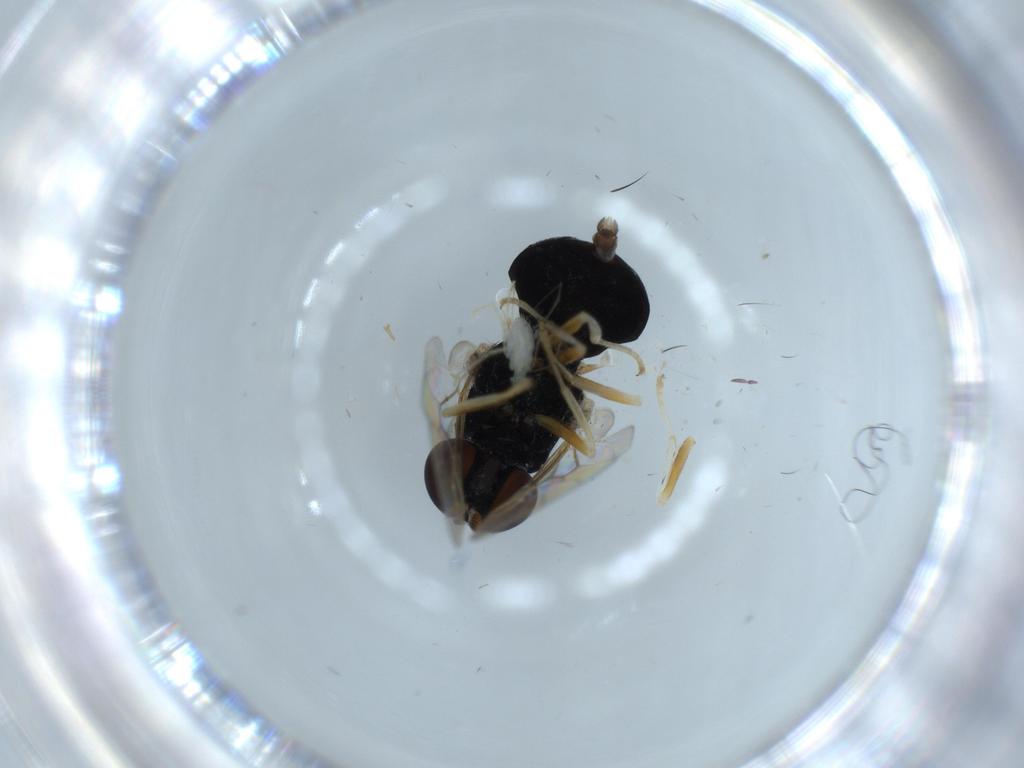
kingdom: Animalia
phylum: Arthropoda
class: Insecta
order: Diptera
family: Stratiomyidae
